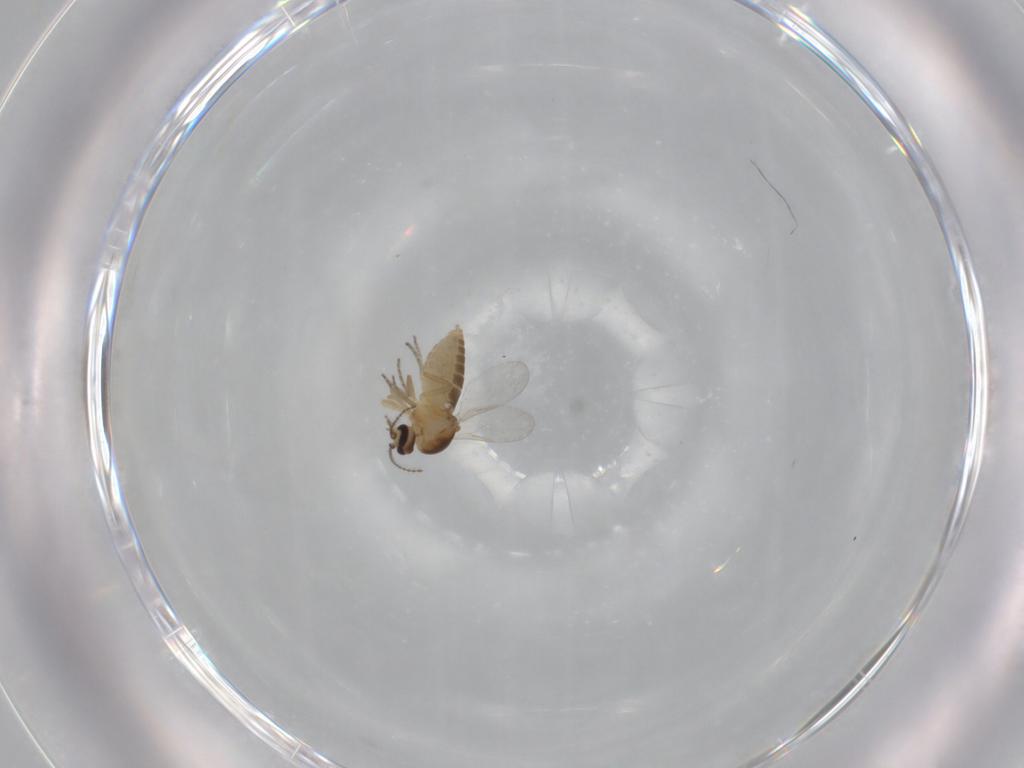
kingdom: Animalia
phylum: Arthropoda
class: Insecta
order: Diptera
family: Ceratopogonidae
